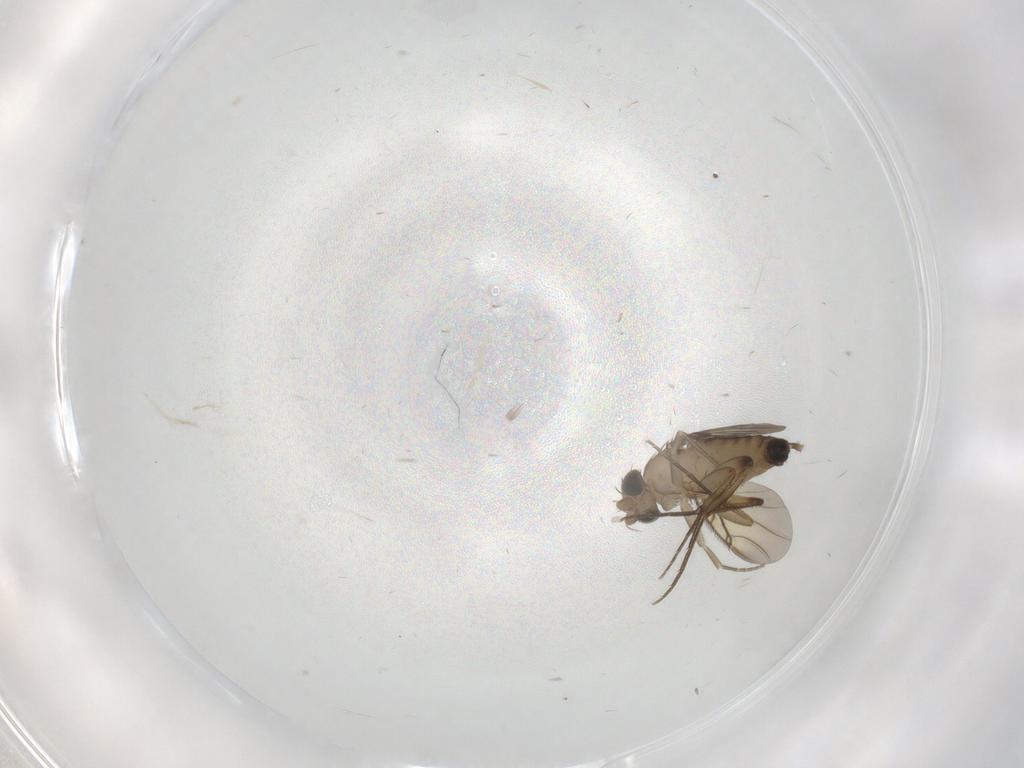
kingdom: Animalia
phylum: Arthropoda
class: Insecta
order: Diptera
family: Phoridae
